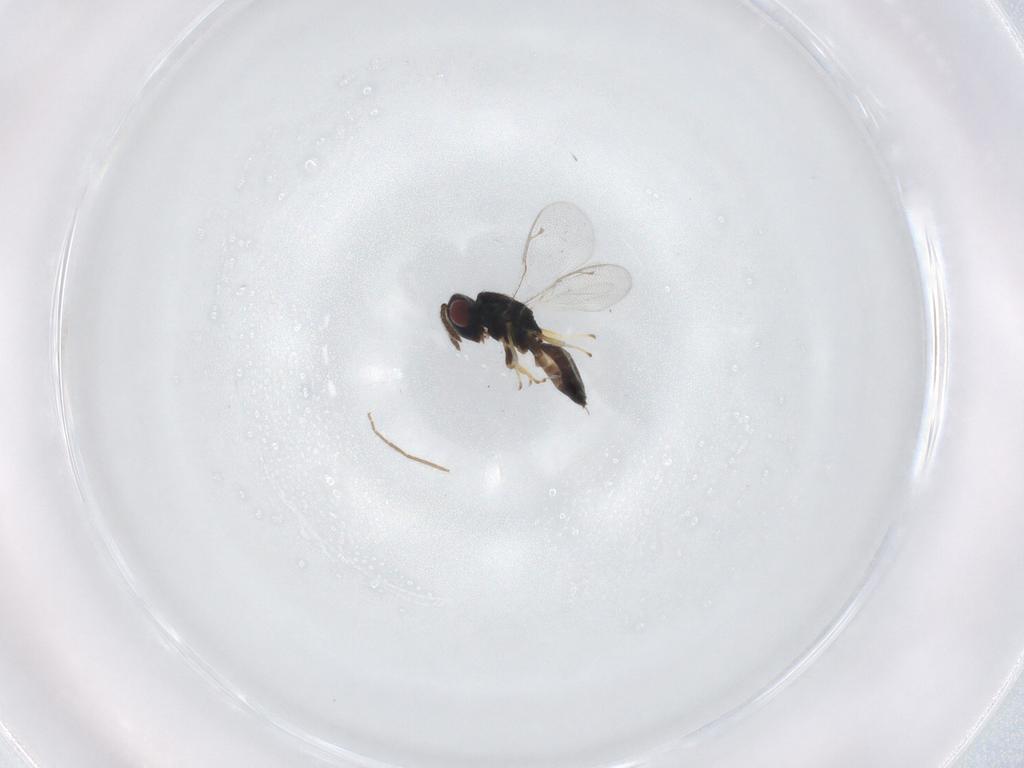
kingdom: Animalia
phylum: Arthropoda
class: Insecta
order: Hymenoptera
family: Pteromalidae
